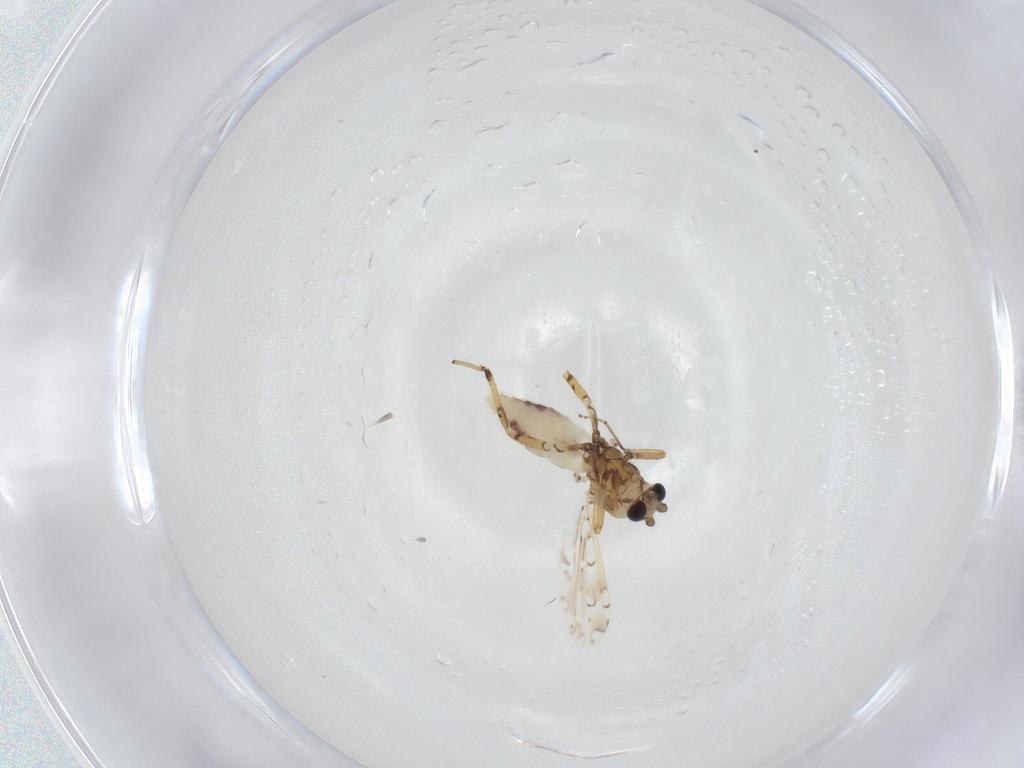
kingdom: Animalia
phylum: Arthropoda
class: Insecta
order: Diptera
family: Ceratopogonidae
